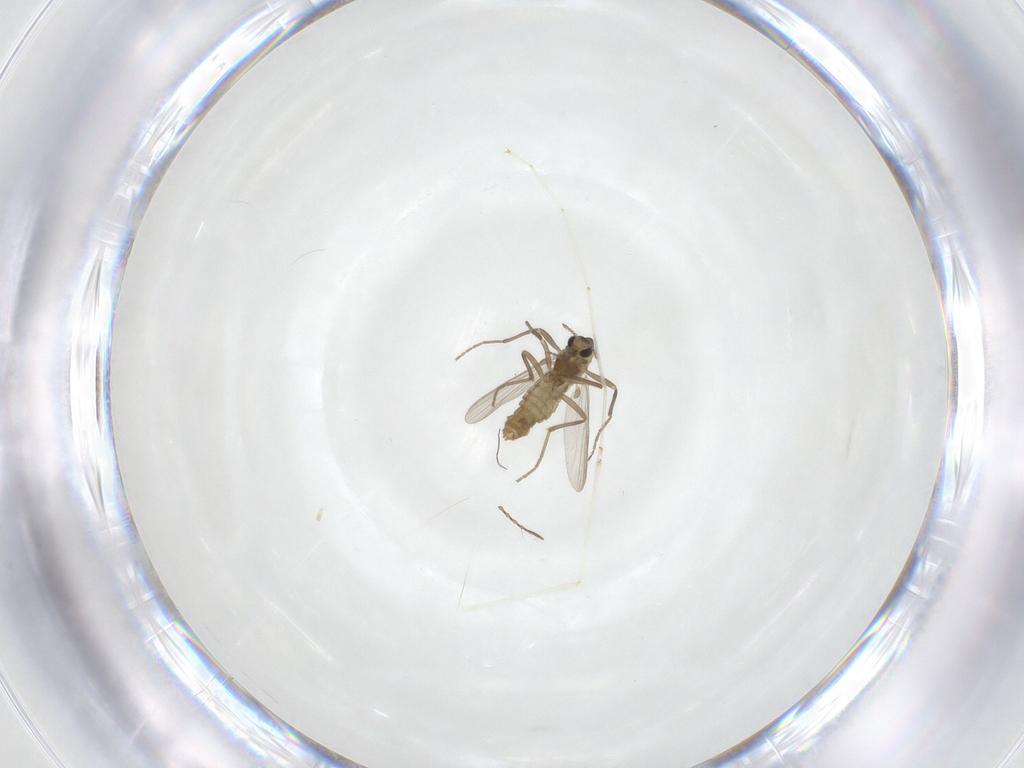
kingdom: Animalia
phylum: Arthropoda
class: Insecta
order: Diptera
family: Chironomidae
